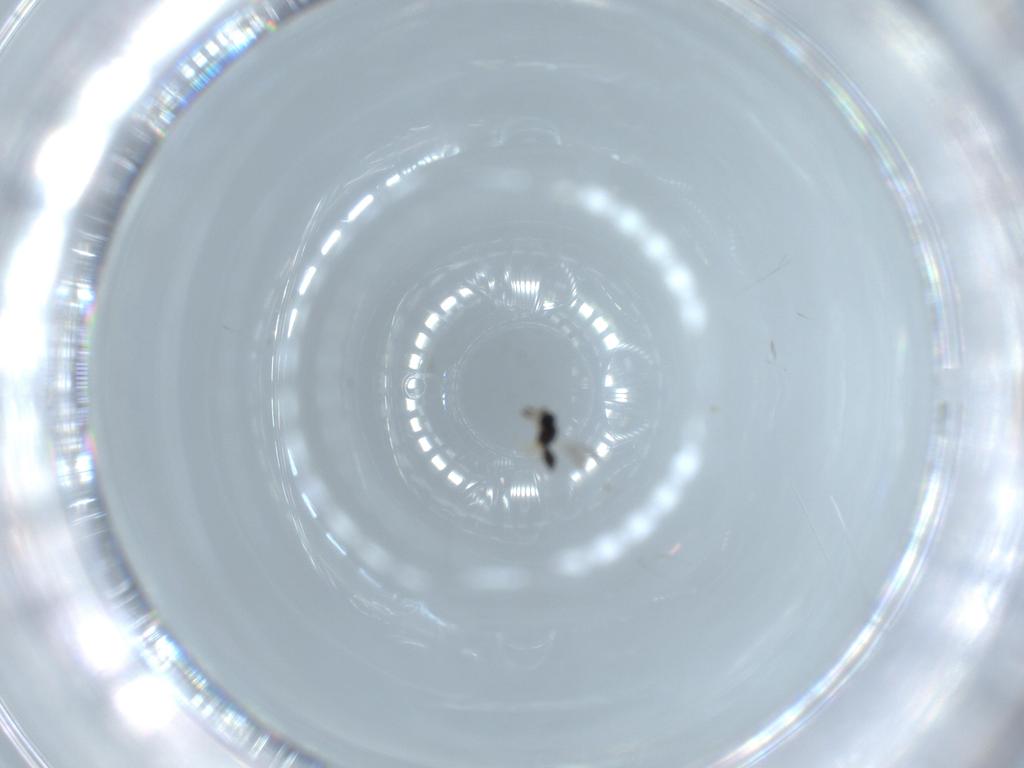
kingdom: Animalia
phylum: Arthropoda
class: Insecta
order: Hymenoptera
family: Scelionidae
